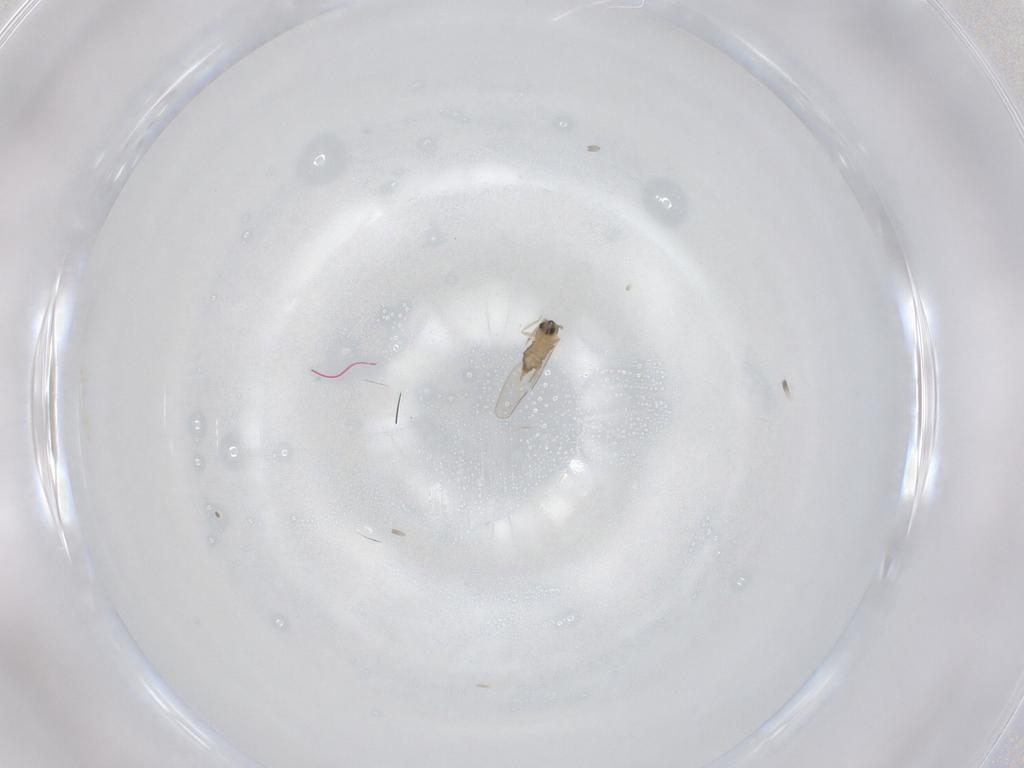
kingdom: Animalia
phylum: Arthropoda
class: Insecta
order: Diptera
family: Cecidomyiidae
